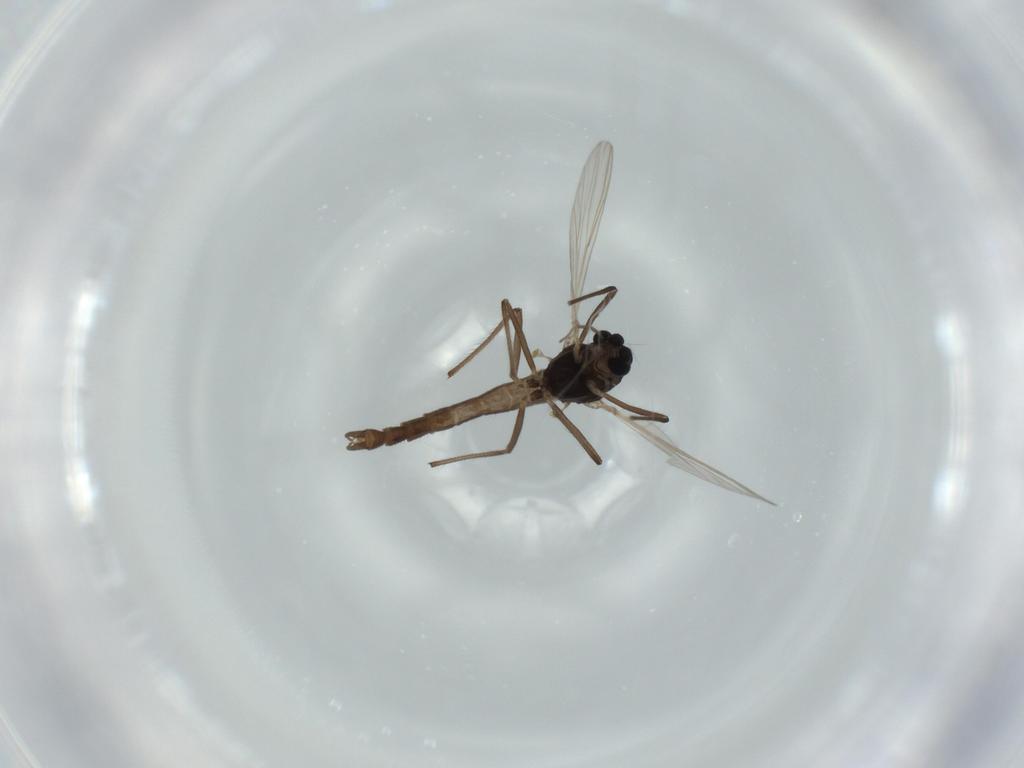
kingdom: Animalia
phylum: Arthropoda
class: Insecta
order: Diptera
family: Chironomidae
